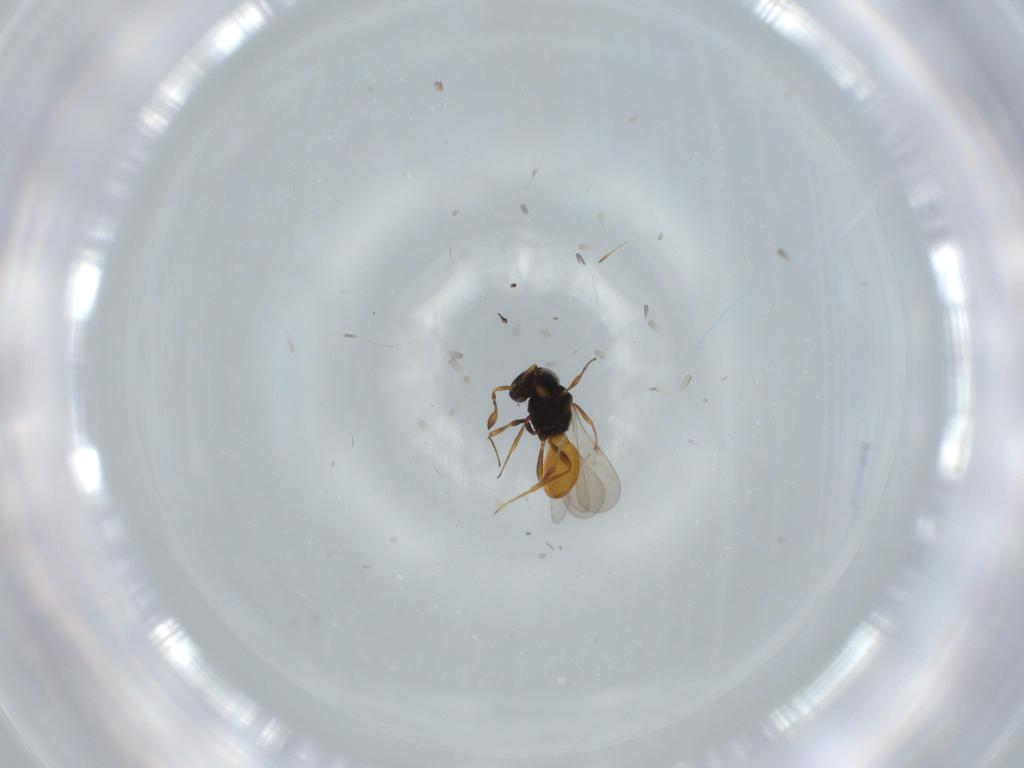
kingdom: Animalia
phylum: Arthropoda
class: Insecta
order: Hymenoptera
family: Scelionidae
